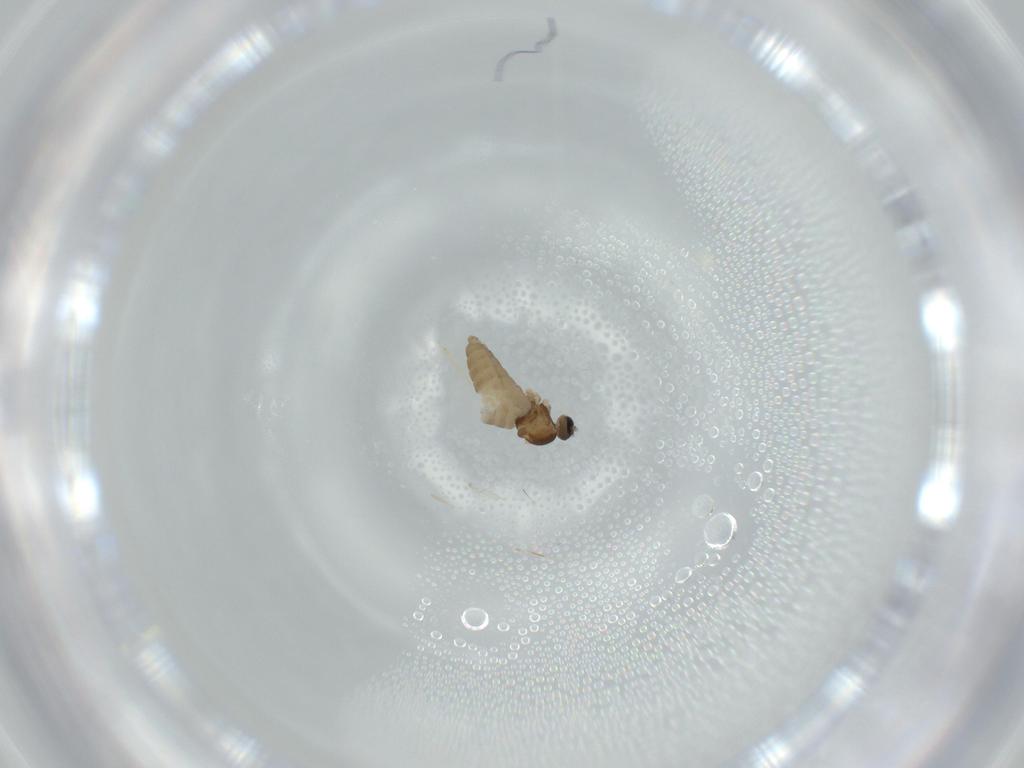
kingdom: Animalia
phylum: Arthropoda
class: Insecta
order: Diptera
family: Cecidomyiidae
